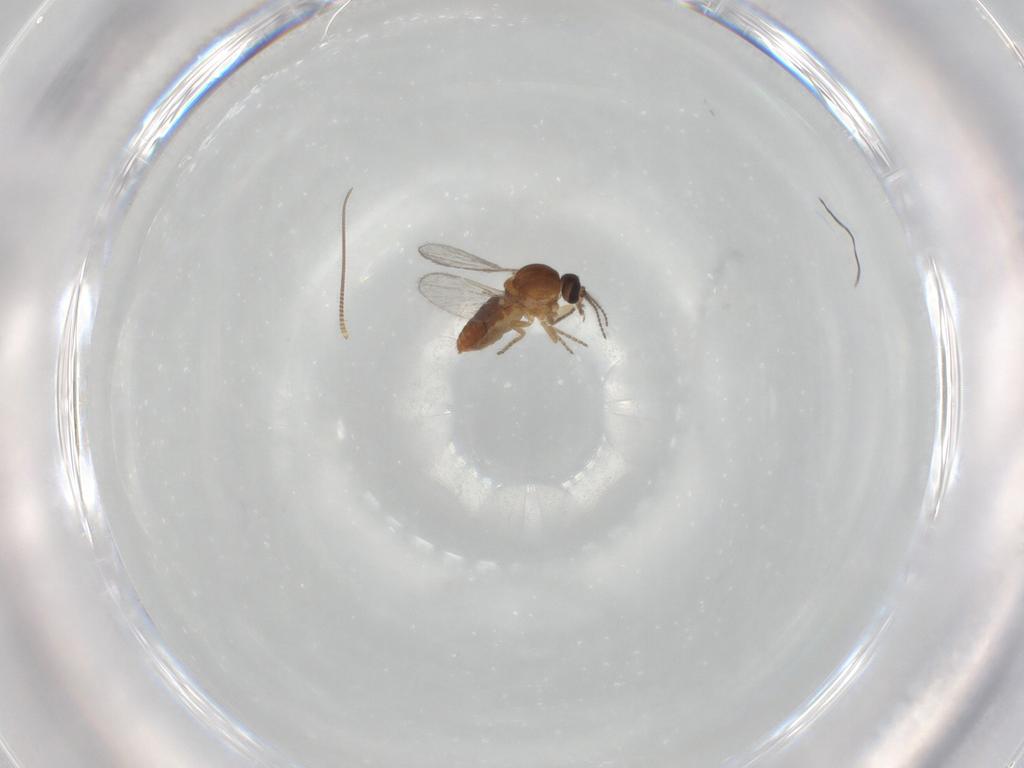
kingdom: Animalia
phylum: Arthropoda
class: Insecta
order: Diptera
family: Ceratopogonidae
